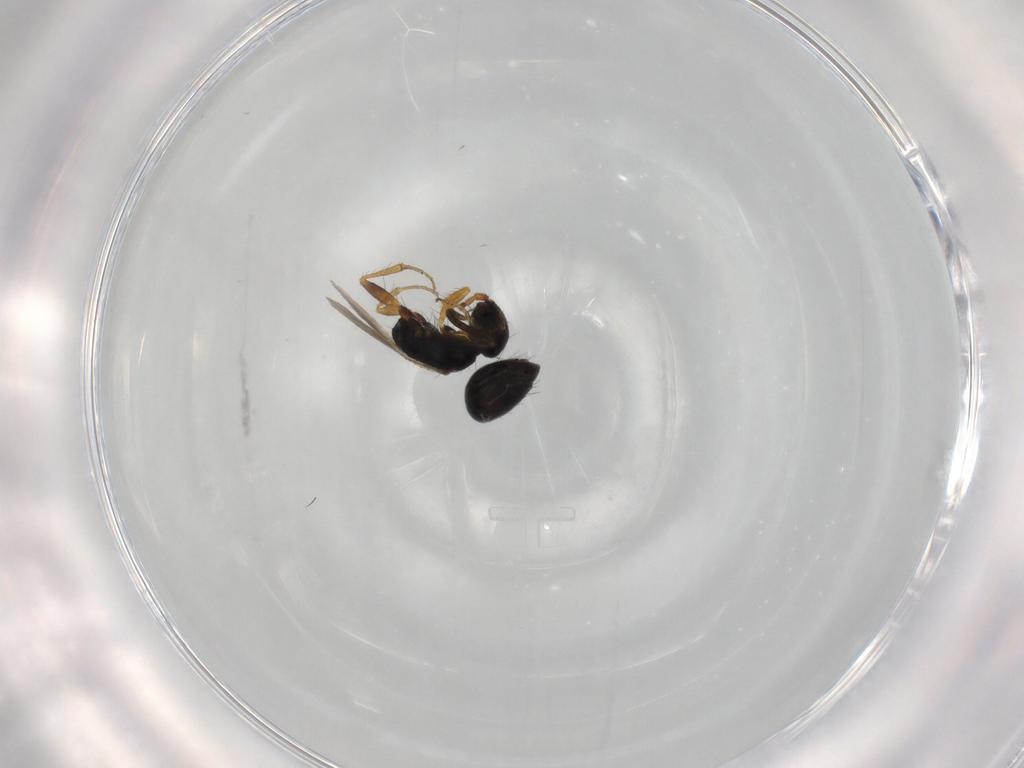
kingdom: Animalia
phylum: Arthropoda
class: Insecta
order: Hymenoptera
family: Bethylidae
